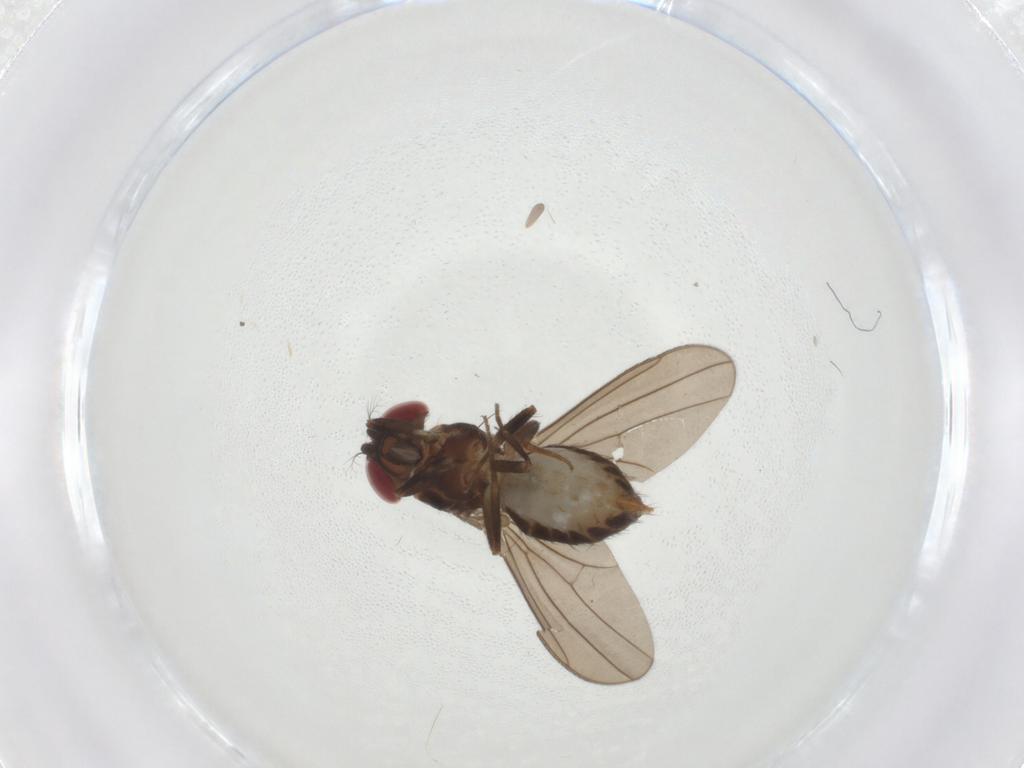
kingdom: Animalia
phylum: Arthropoda
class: Insecta
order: Diptera
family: Drosophilidae
